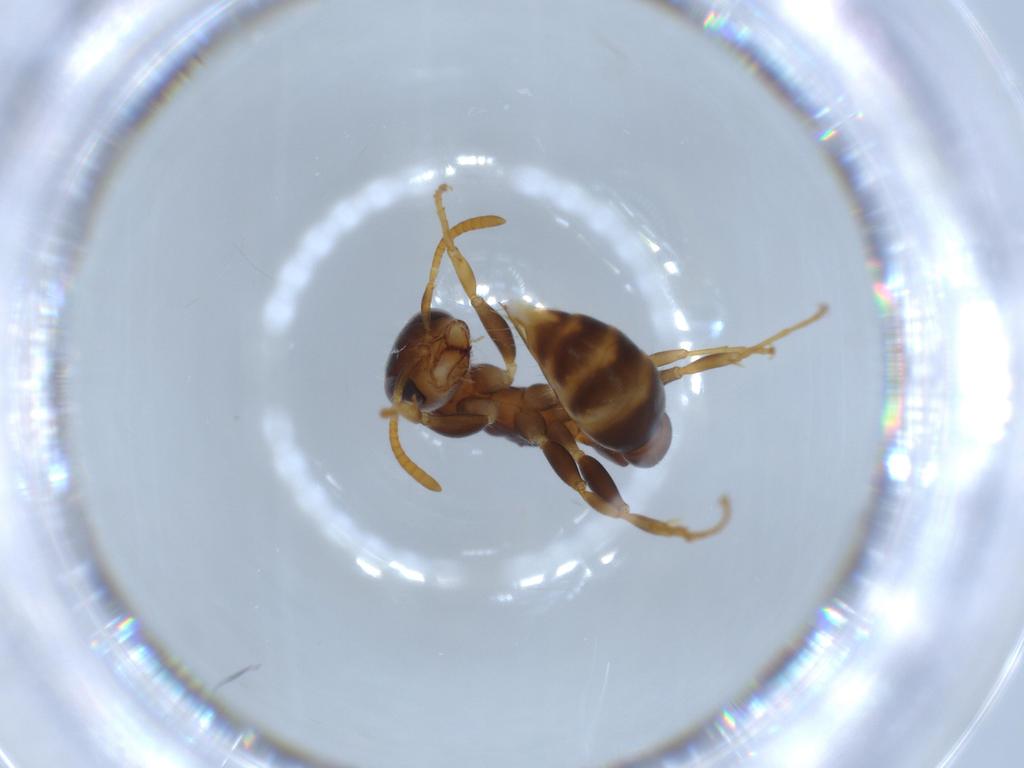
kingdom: Animalia
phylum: Arthropoda
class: Insecta
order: Hymenoptera
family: Formicidae
